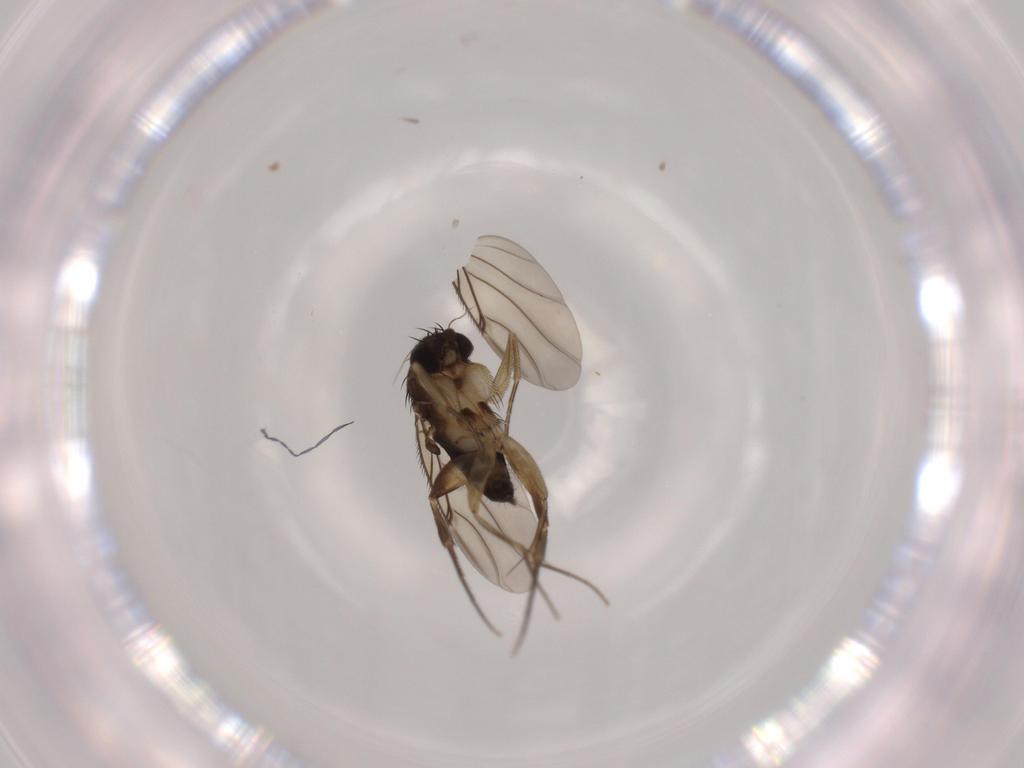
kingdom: Animalia
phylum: Arthropoda
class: Insecta
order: Diptera
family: Phoridae
